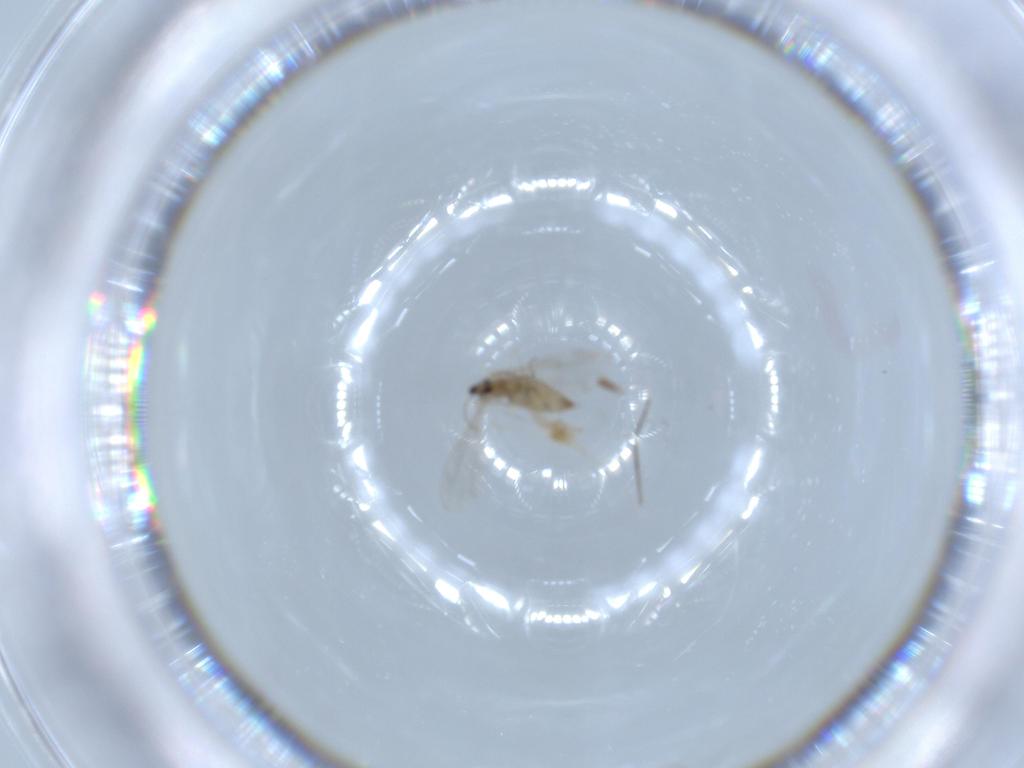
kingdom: Animalia
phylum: Arthropoda
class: Insecta
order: Diptera
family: Cecidomyiidae
